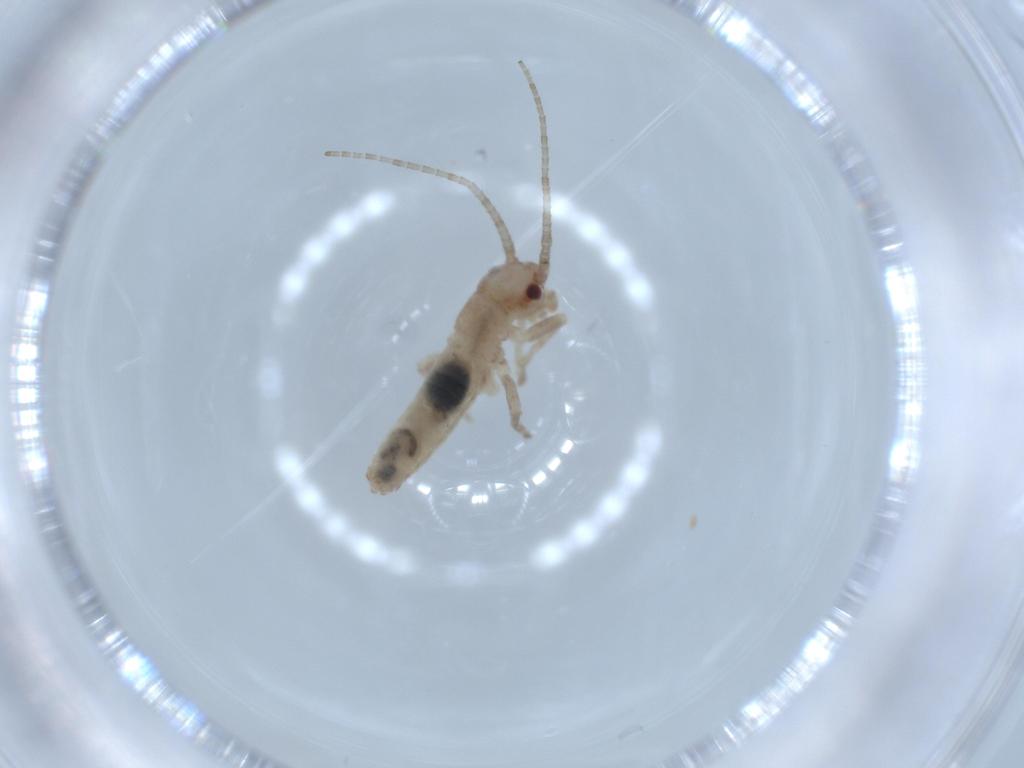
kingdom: Animalia
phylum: Arthropoda
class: Insecta
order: Orthoptera
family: Mogoplistidae
